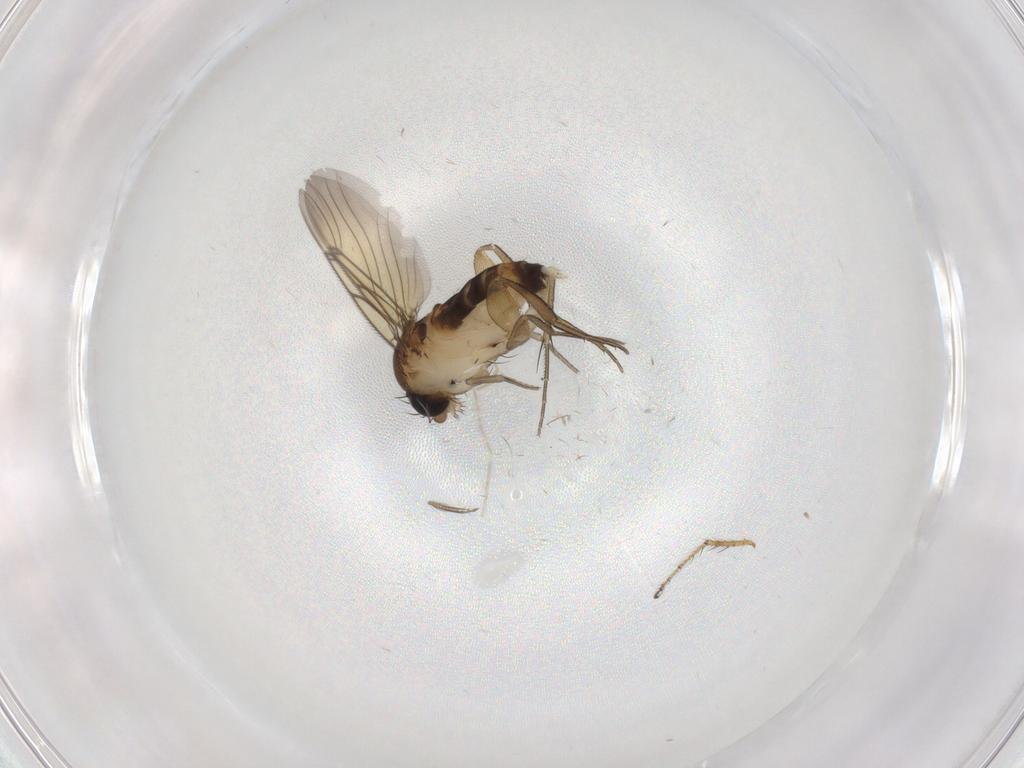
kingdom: Animalia
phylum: Arthropoda
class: Insecta
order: Diptera
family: Cecidomyiidae
